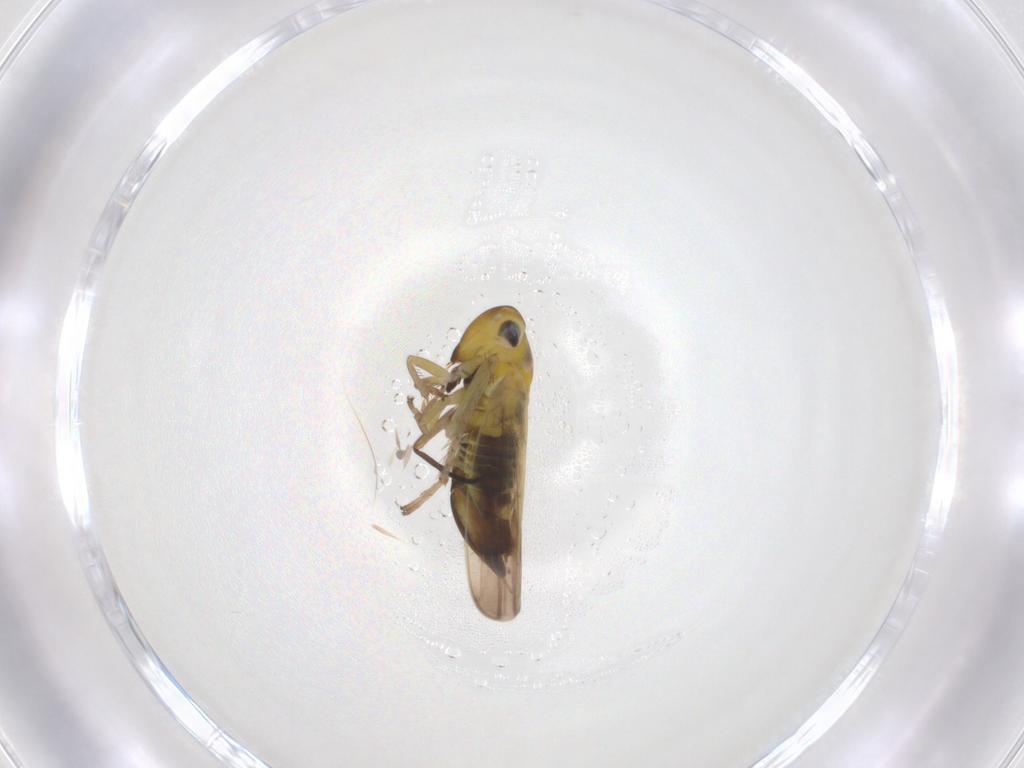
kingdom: Animalia
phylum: Arthropoda
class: Insecta
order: Hemiptera
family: Cicadellidae
